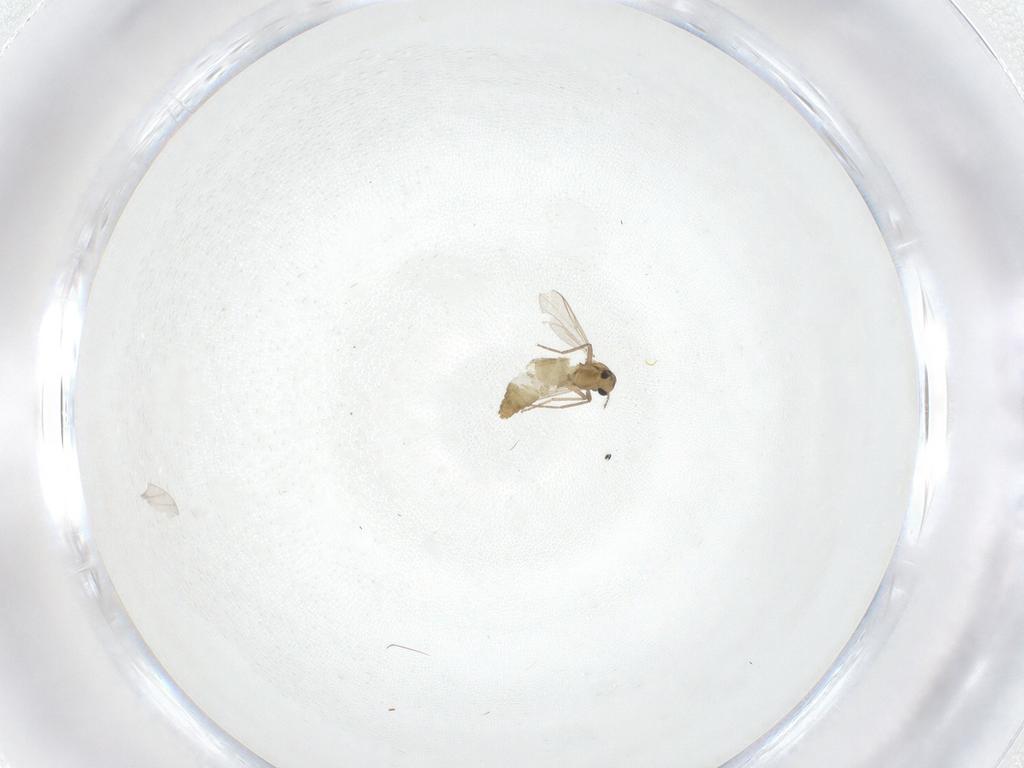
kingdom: Animalia
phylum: Arthropoda
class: Insecta
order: Diptera
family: Chironomidae
